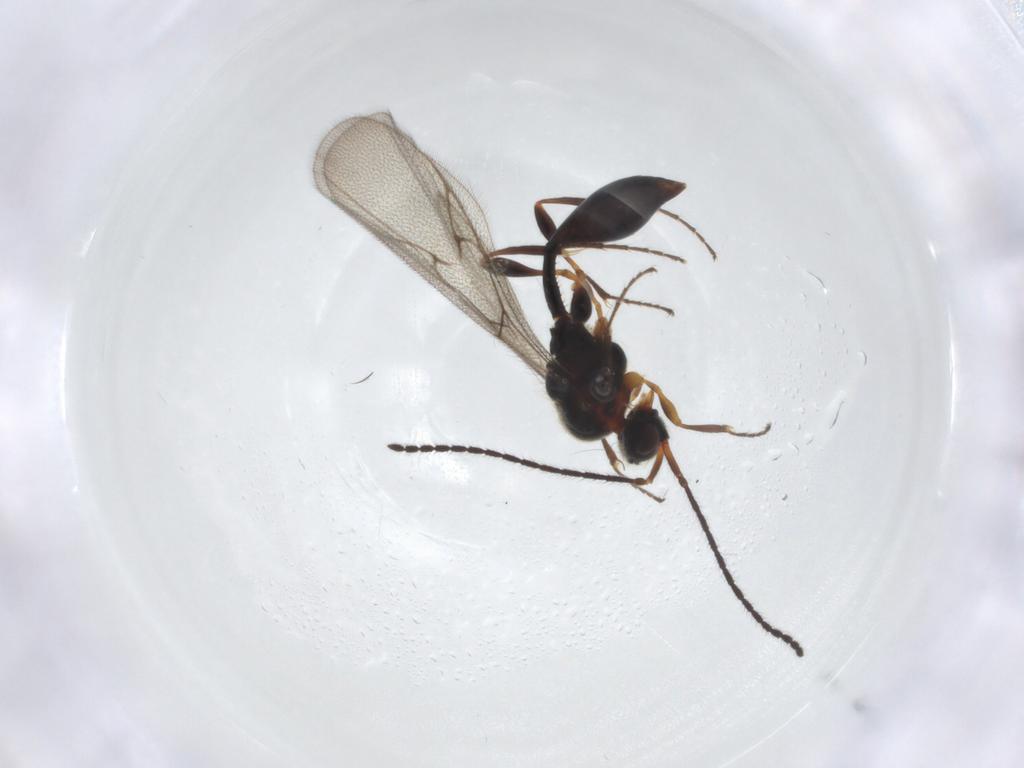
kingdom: Animalia
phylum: Arthropoda
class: Insecta
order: Hymenoptera
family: Diapriidae
